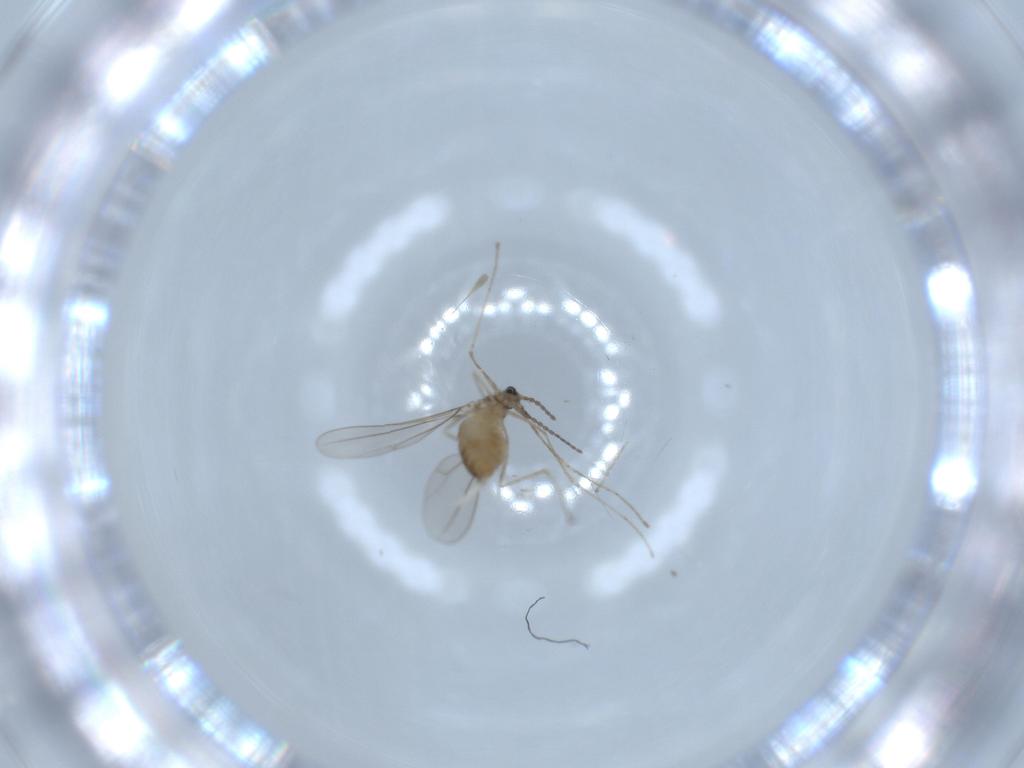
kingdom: Animalia
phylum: Arthropoda
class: Insecta
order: Diptera
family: Cecidomyiidae
